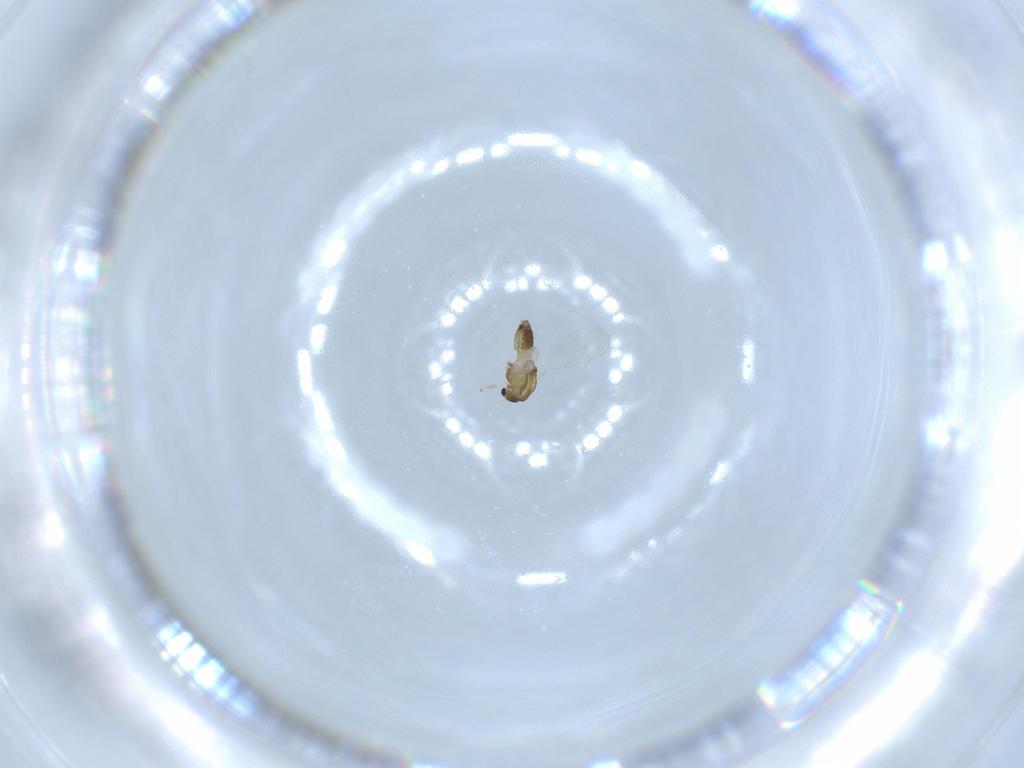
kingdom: Animalia
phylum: Arthropoda
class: Insecta
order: Diptera
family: Chironomidae
